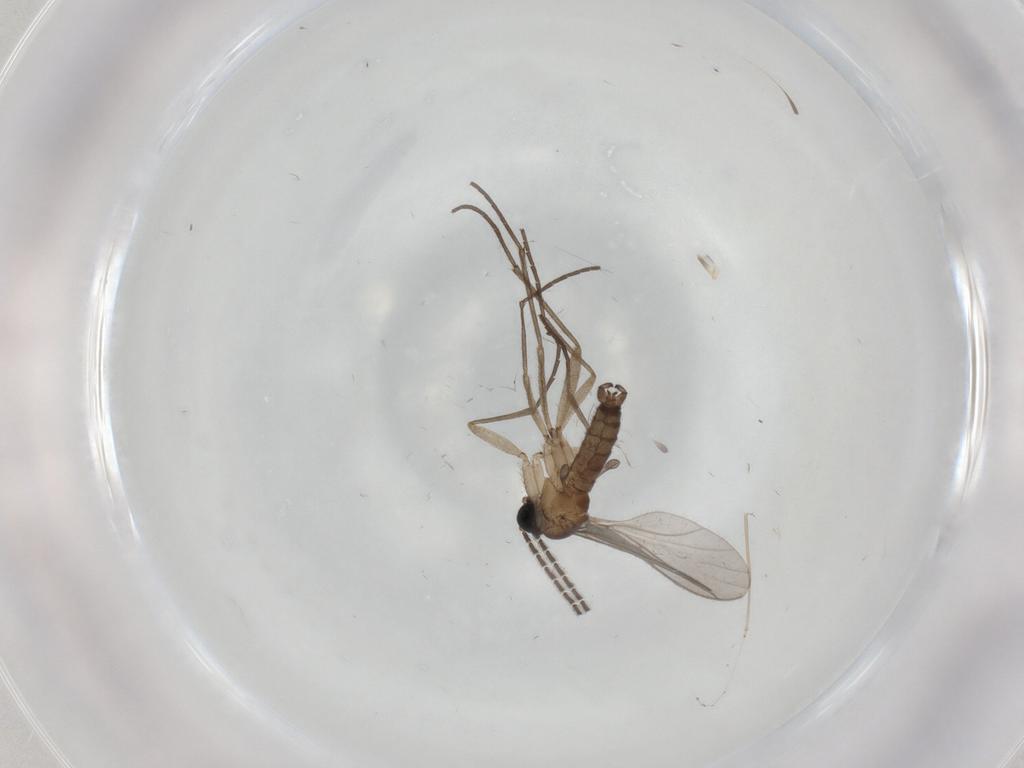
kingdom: Animalia
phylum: Arthropoda
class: Insecta
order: Diptera
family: Sciaridae
